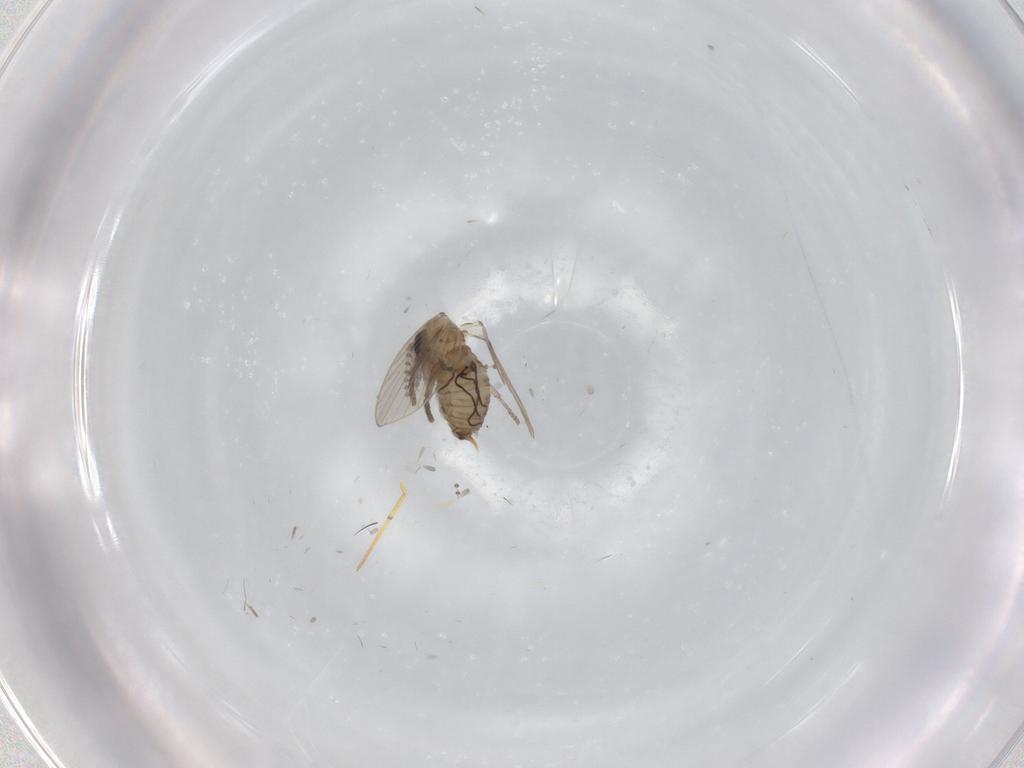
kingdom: Animalia
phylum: Arthropoda
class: Insecta
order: Diptera
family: Psychodidae
